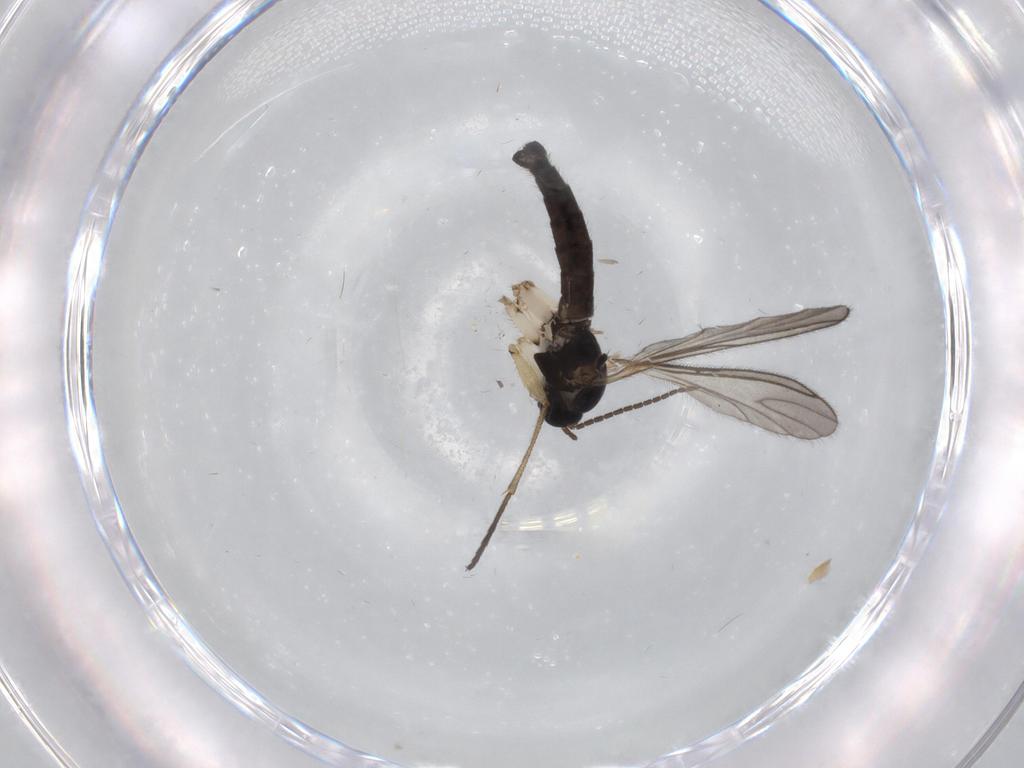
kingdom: Animalia
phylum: Arthropoda
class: Insecta
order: Diptera
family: Sciaridae
